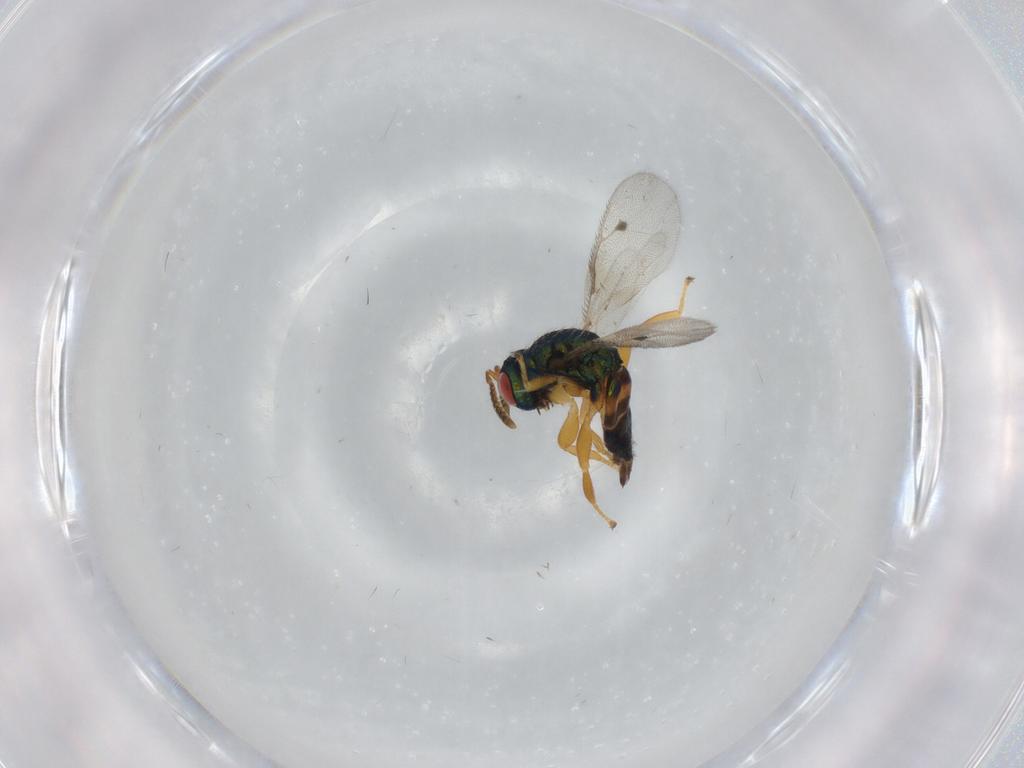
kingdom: Animalia
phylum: Arthropoda
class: Insecta
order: Hymenoptera
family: Pteromalidae
